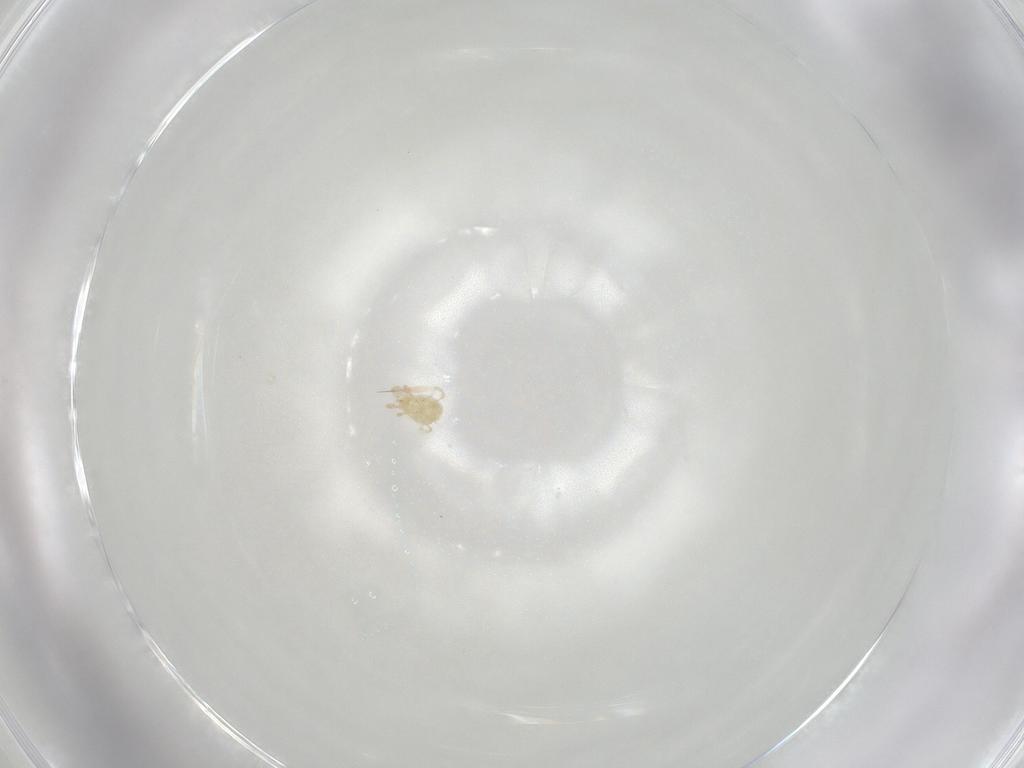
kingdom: Animalia
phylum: Arthropoda
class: Arachnida
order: Mesostigmata
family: Phytoseiidae
